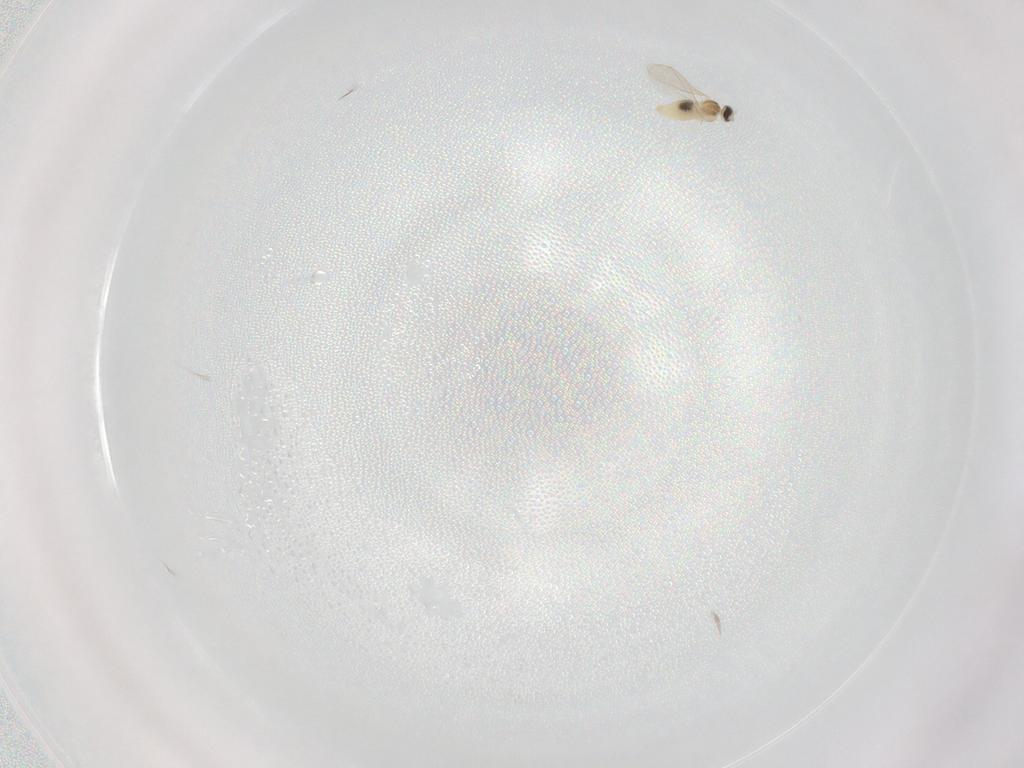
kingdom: Animalia
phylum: Arthropoda
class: Insecta
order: Diptera
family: Cecidomyiidae
